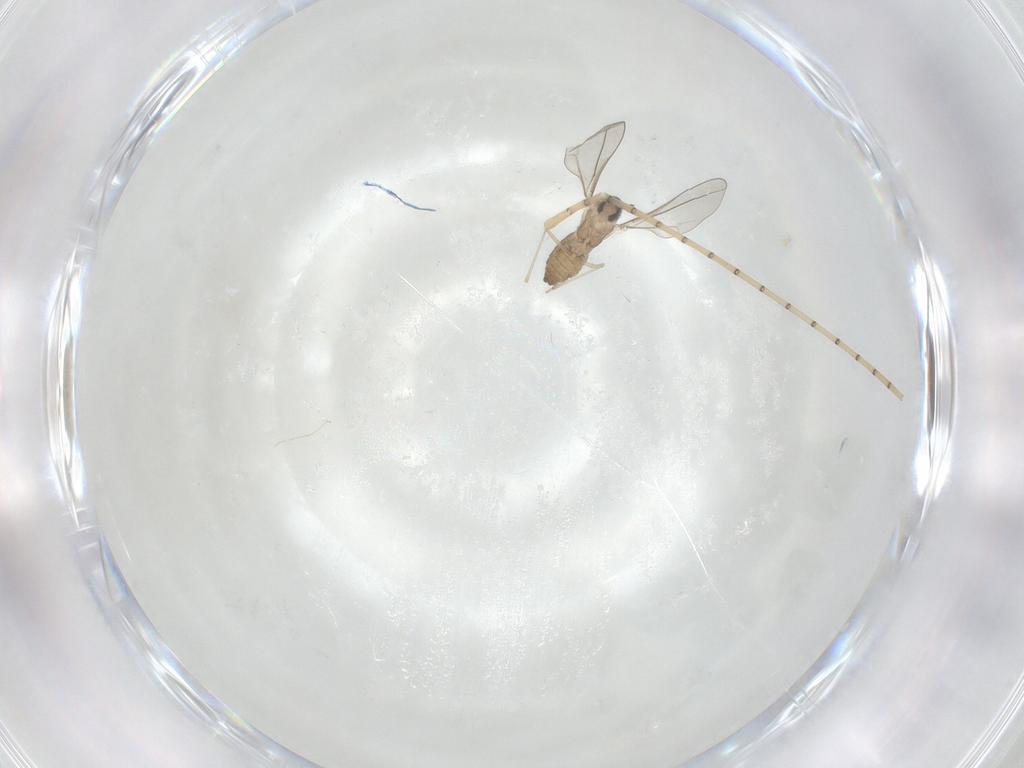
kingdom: Animalia
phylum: Arthropoda
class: Insecta
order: Diptera
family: Cecidomyiidae
